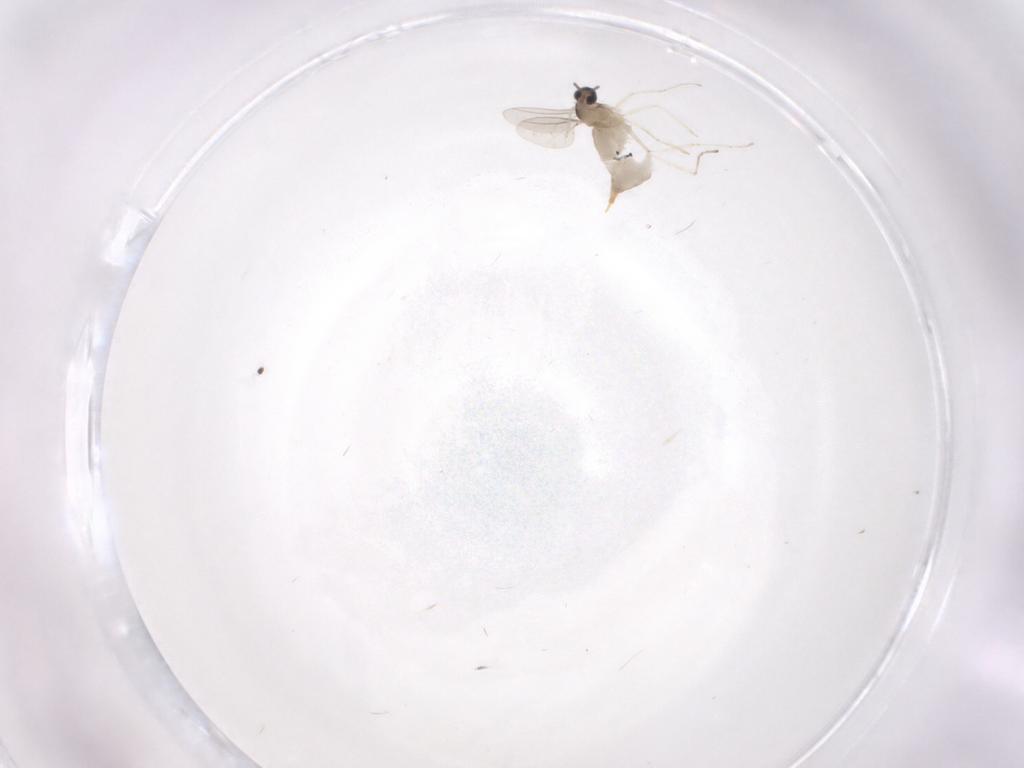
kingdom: Animalia
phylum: Arthropoda
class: Insecta
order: Diptera
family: Cecidomyiidae
